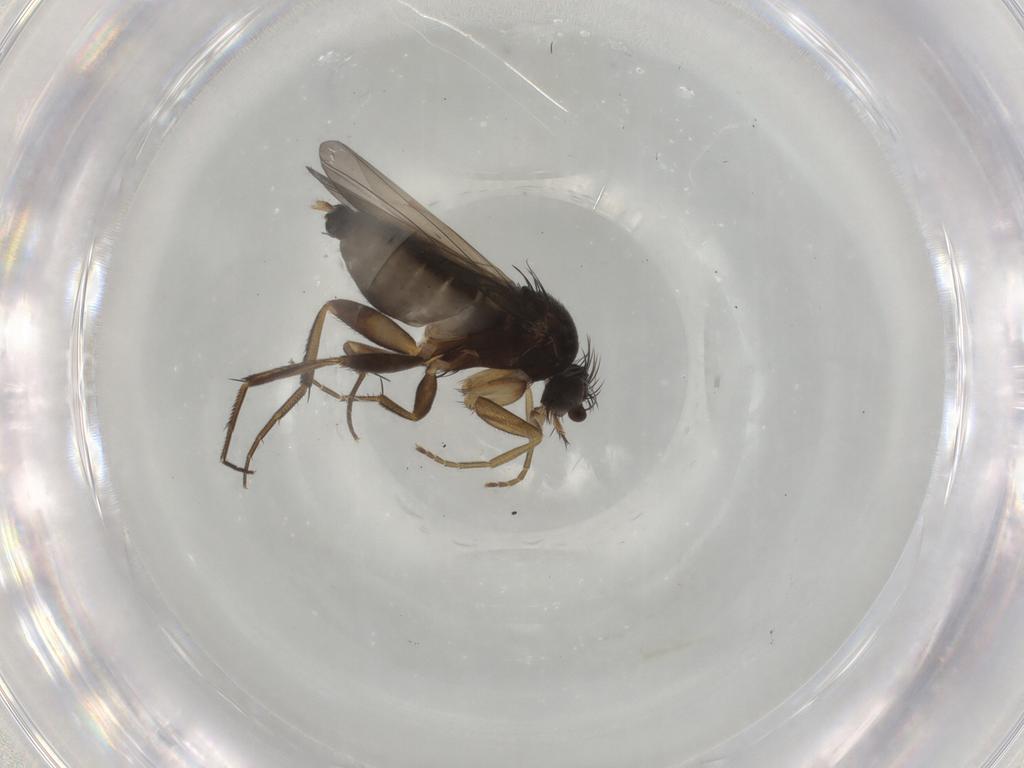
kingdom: Animalia
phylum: Arthropoda
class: Insecta
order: Diptera
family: Phoridae
